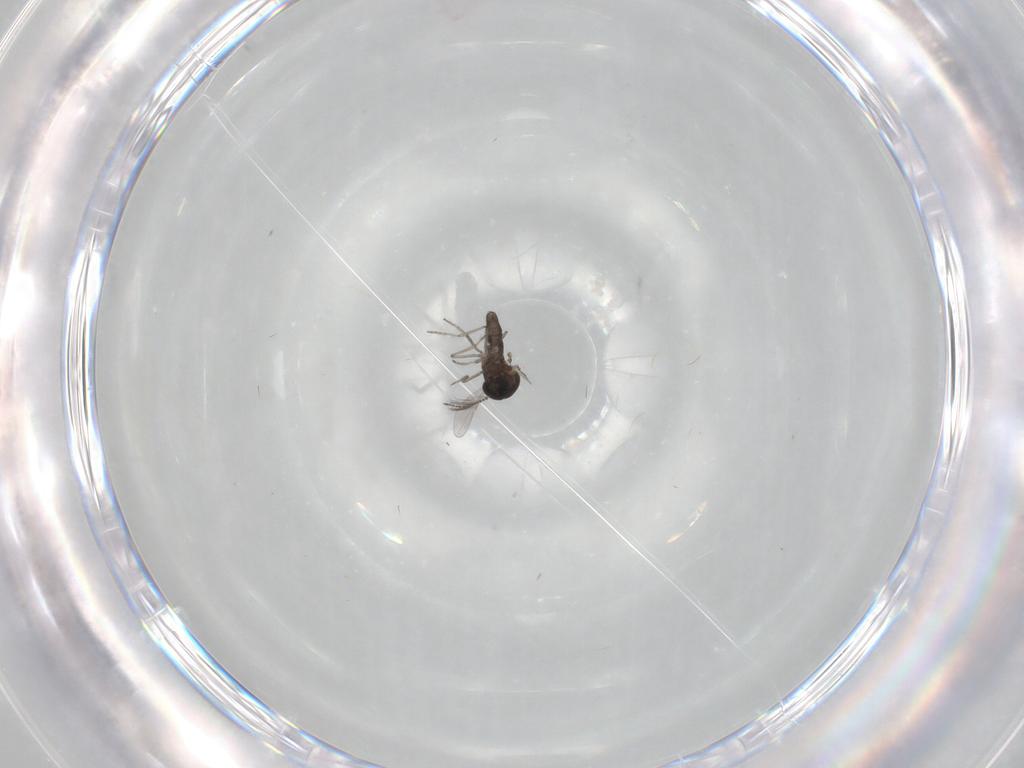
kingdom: Animalia
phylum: Arthropoda
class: Insecta
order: Diptera
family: Ceratopogonidae
